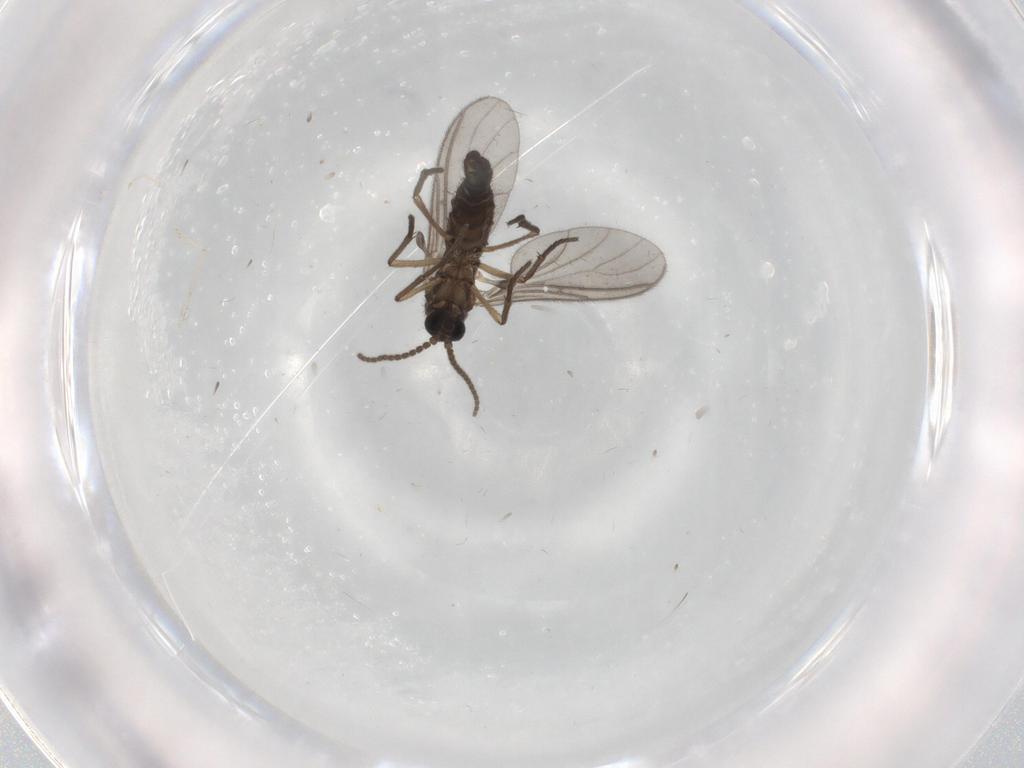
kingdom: Animalia
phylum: Arthropoda
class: Insecta
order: Diptera
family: Sciaridae
